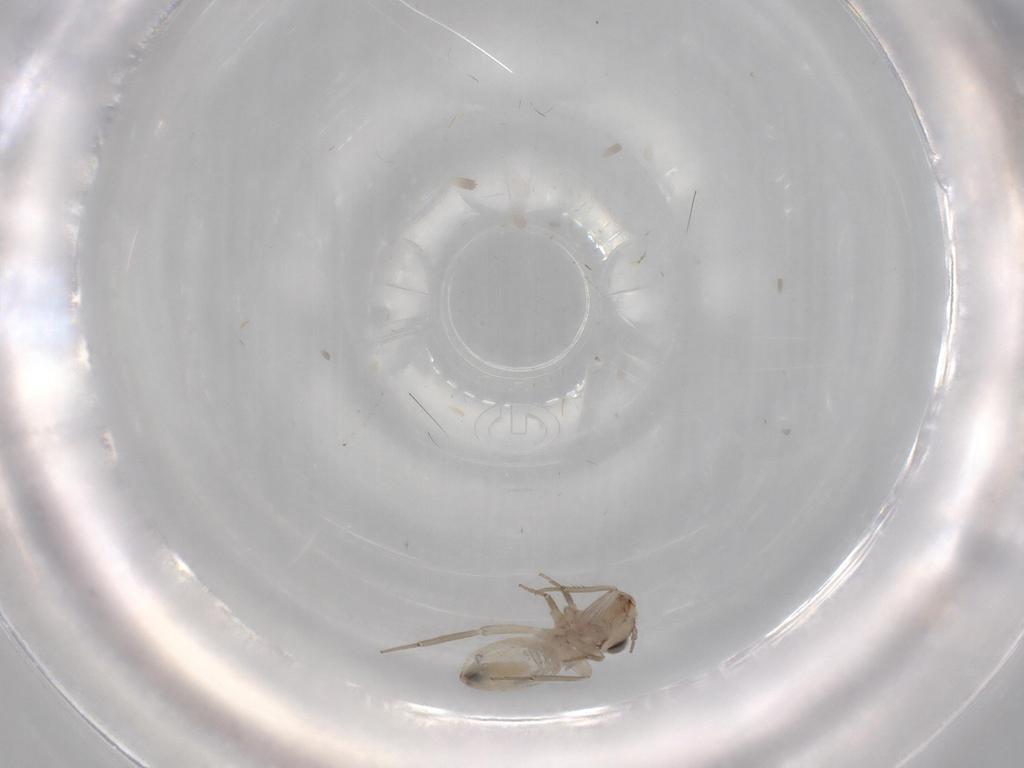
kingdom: Animalia
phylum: Arthropoda
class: Insecta
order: Psocodea
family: Lepidopsocidae
